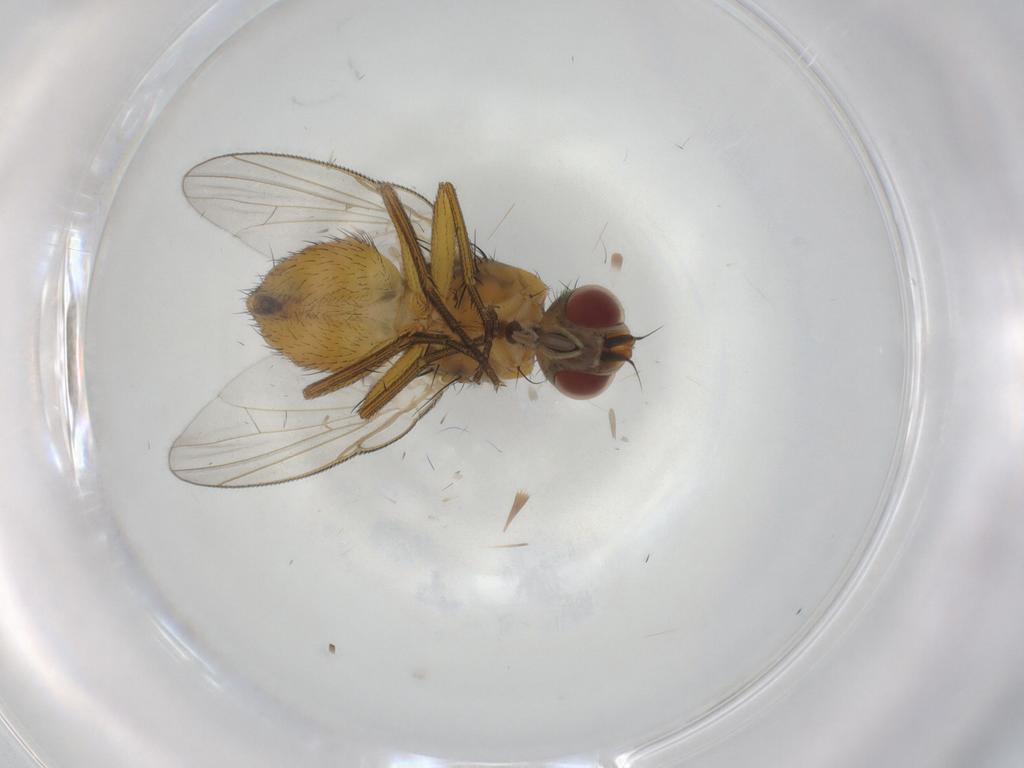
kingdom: Animalia
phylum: Arthropoda
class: Insecta
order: Diptera
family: Muscidae
